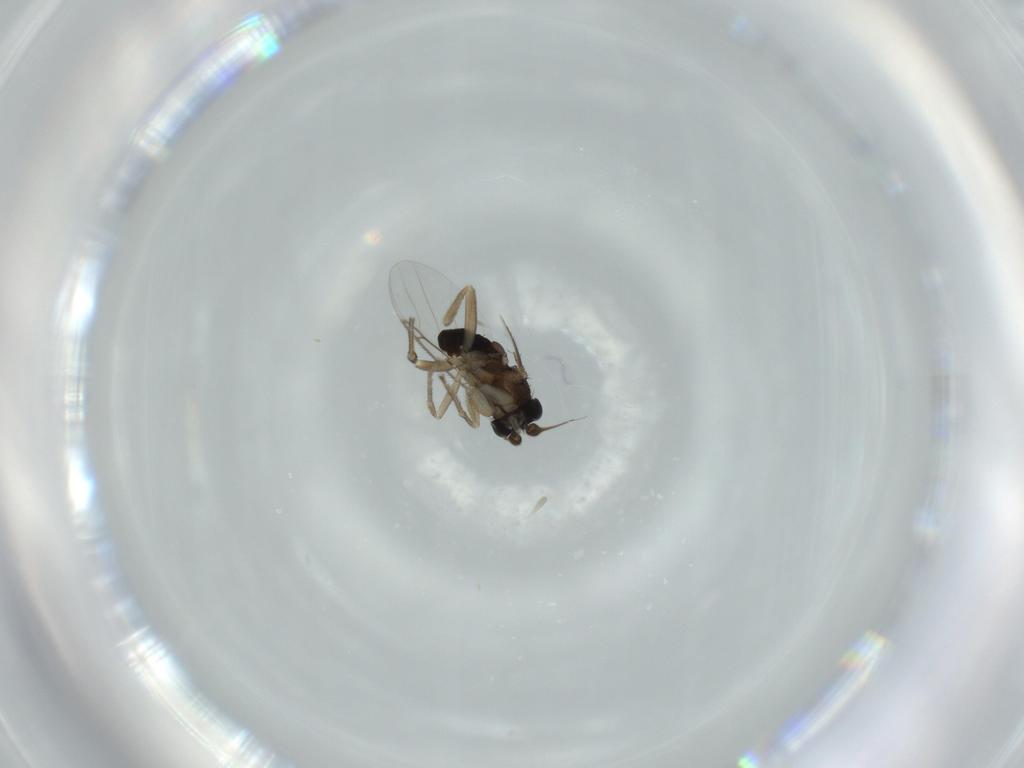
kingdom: Animalia
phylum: Arthropoda
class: Insecta
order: Diptera
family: Phoridae
